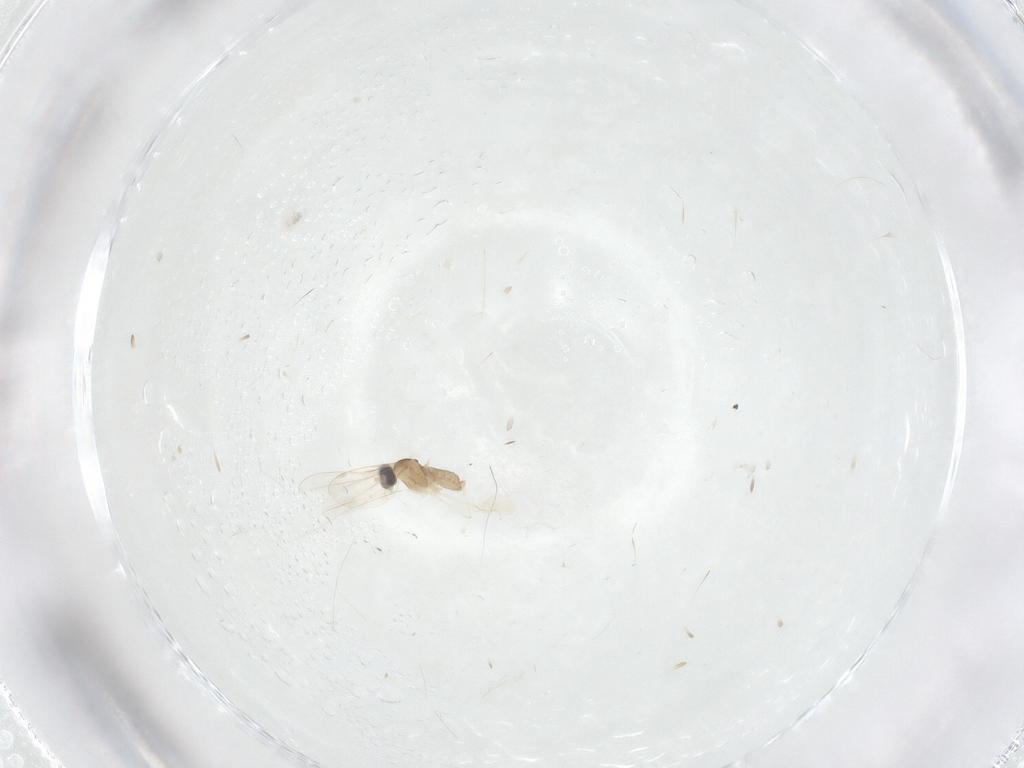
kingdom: Animalia
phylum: Arthropoda
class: Insecta
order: Diptera
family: Cecidomyiidae
